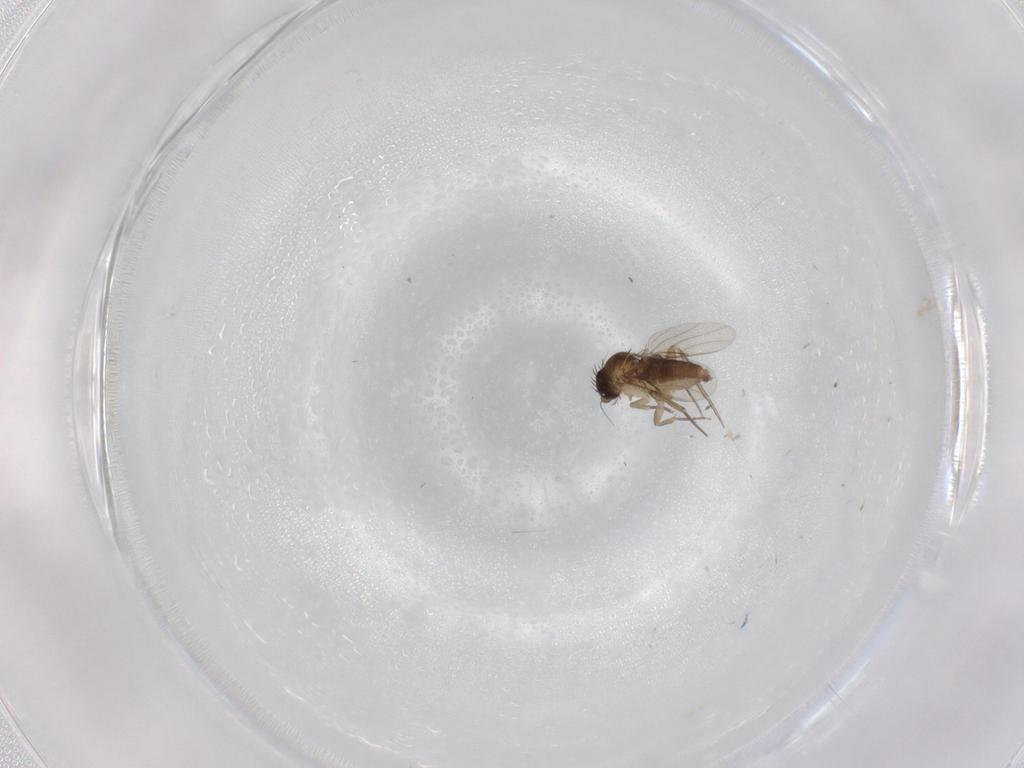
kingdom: Animalia
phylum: Arthropoda
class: Insecta
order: Diptera
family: Phoridae
